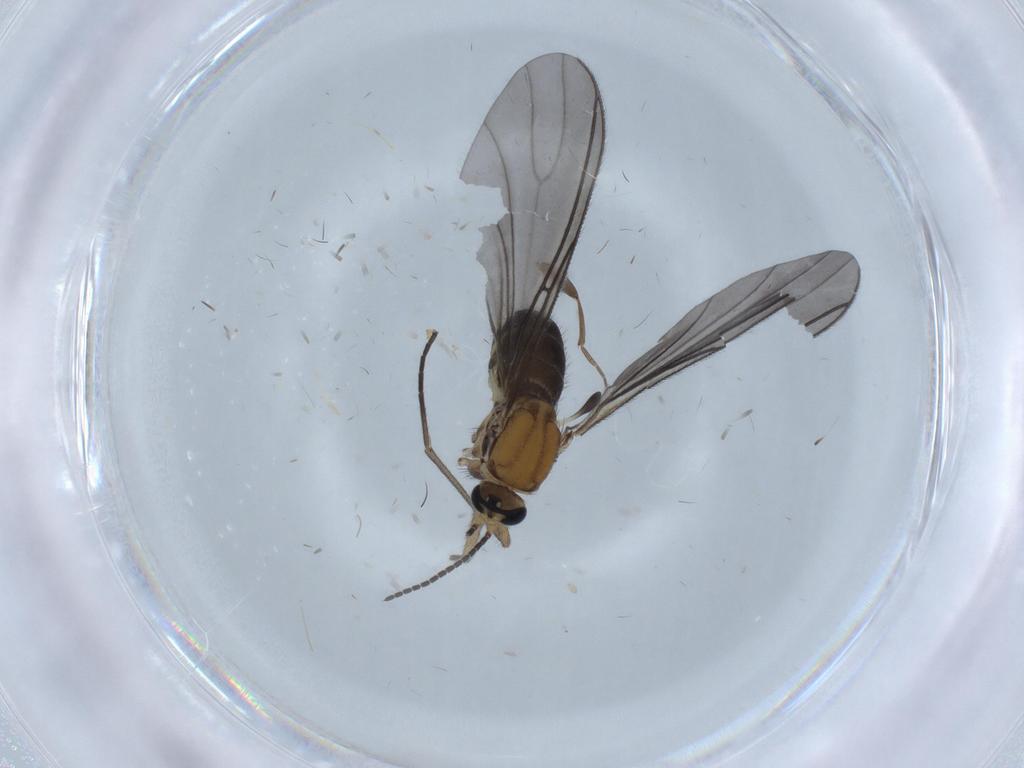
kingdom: Animalia
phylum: Arthropoda
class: Insecta
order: Diptera
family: Sciaridae
